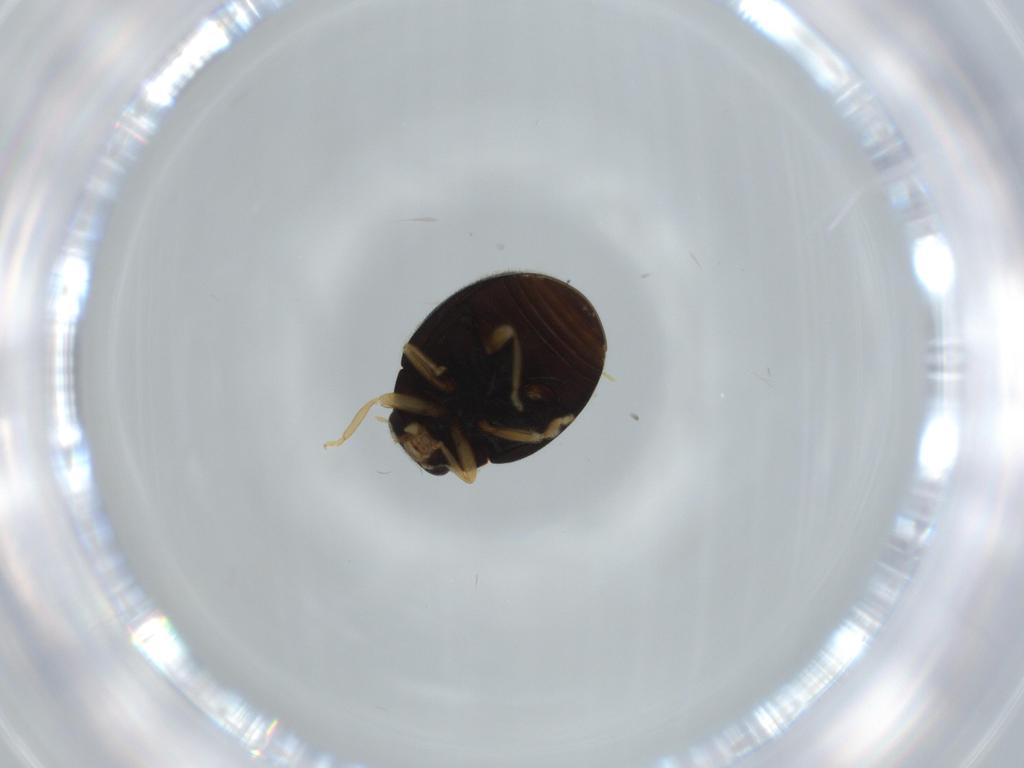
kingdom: Animalia
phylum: Arthropoda
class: Insecta
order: Coleoptera
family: Coccinellidae
